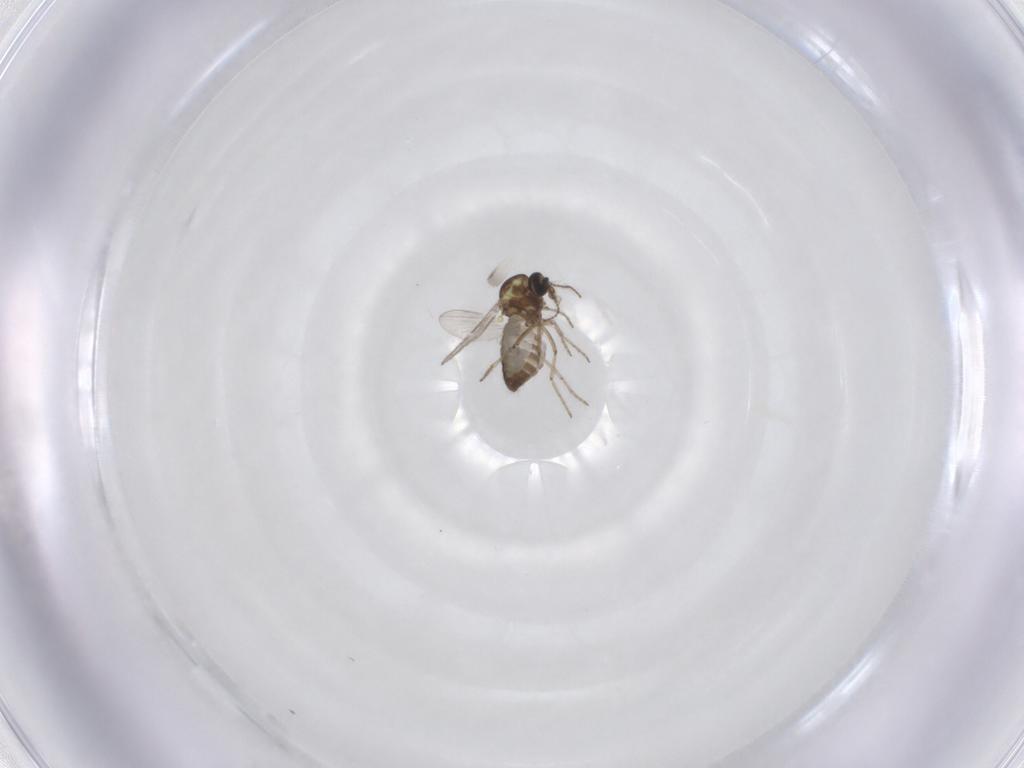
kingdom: Animalia
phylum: Arthropoda
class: Insecta
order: Diptera
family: Ceratopogonidae
